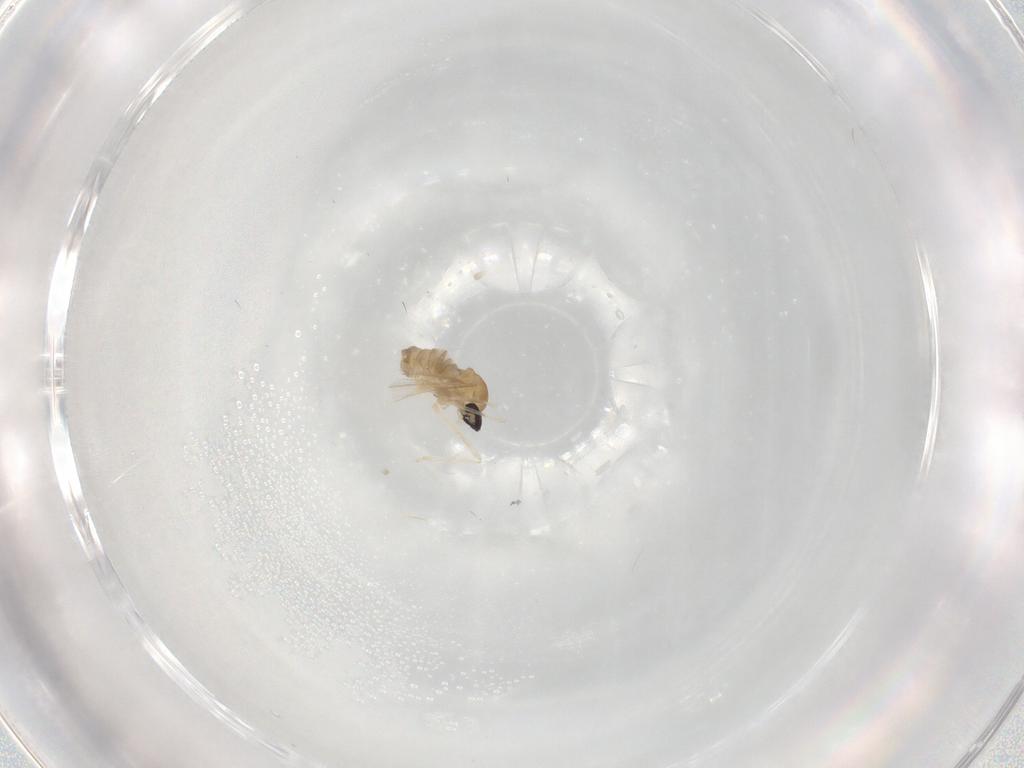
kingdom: Animalia
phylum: Arthropoda
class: Insecta
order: Diptera
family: Cecidomyiidae
